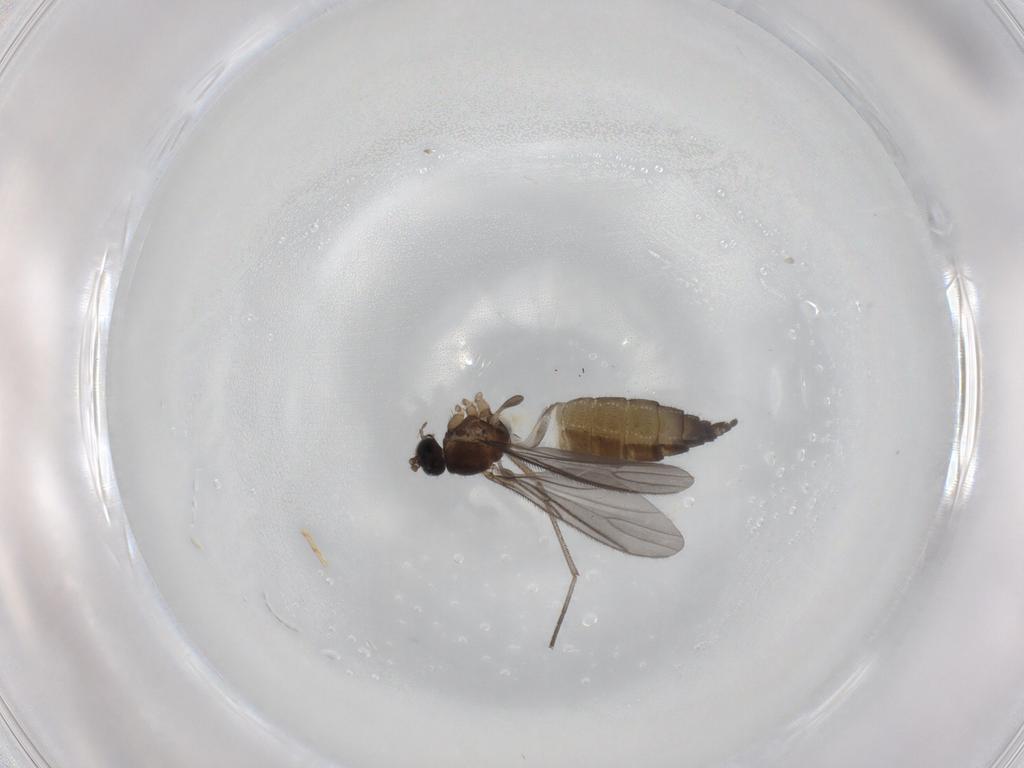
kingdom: Animalia
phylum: Arthropoda
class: Insecta
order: Diptera
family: Sciaridae
